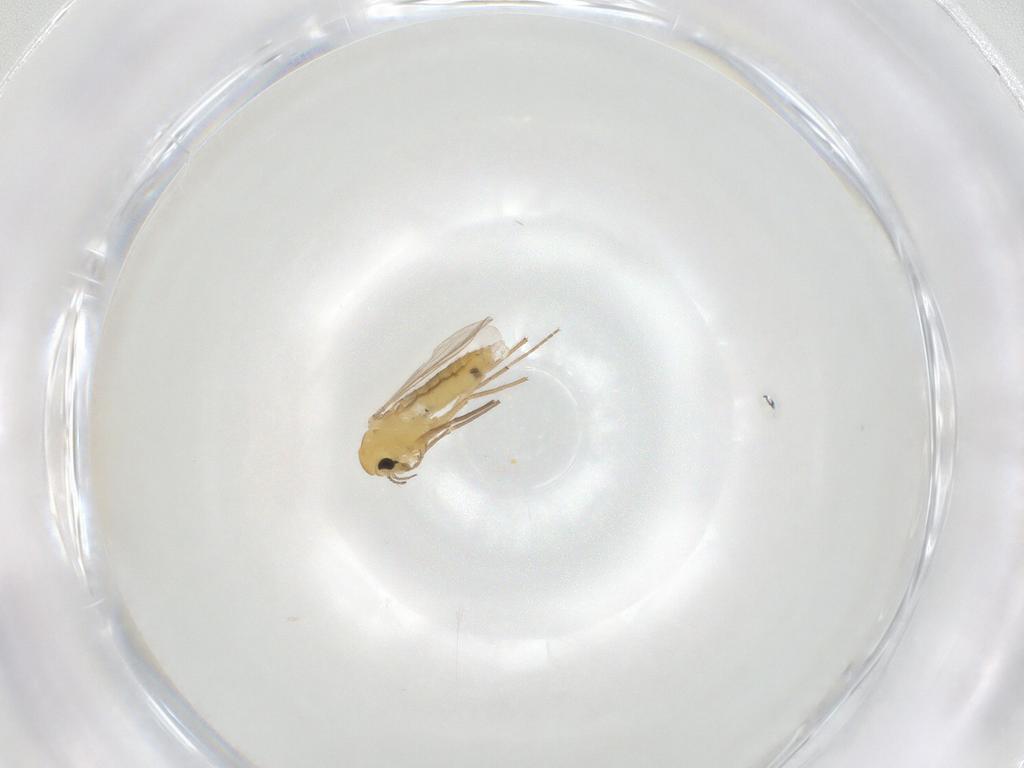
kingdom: Animalia
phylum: Arthropoda
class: Insecta
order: Diptera
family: Chironomidae
